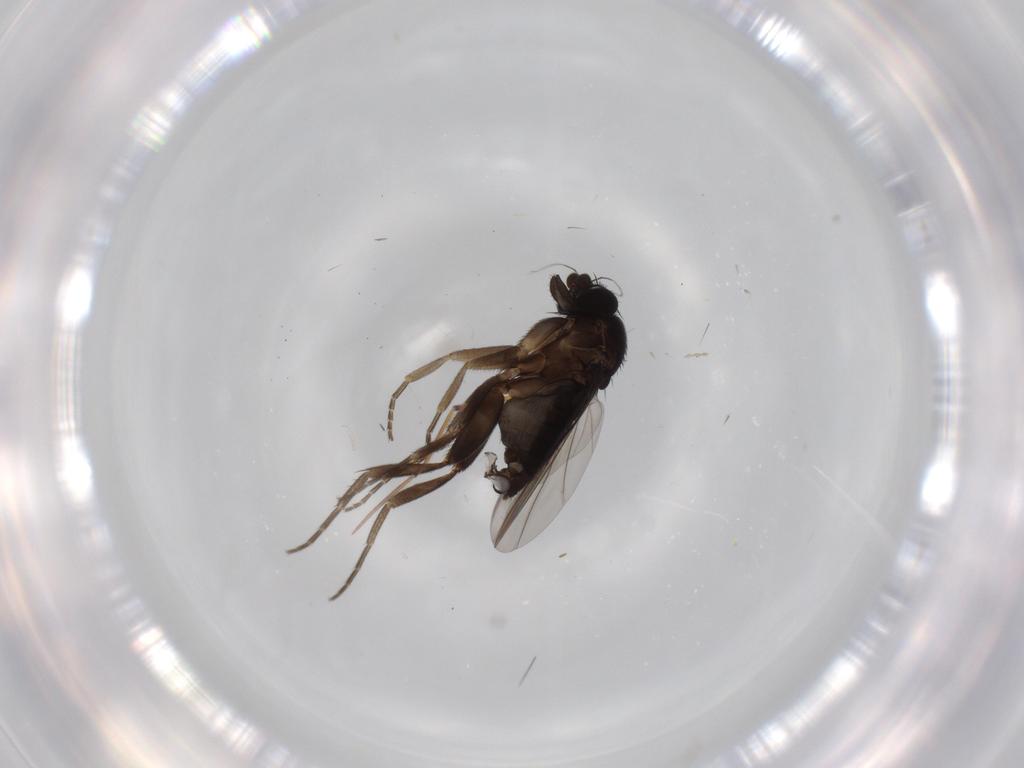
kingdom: Animalia
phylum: Arthropoda
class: Insecta
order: Diptera
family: Phoridae
